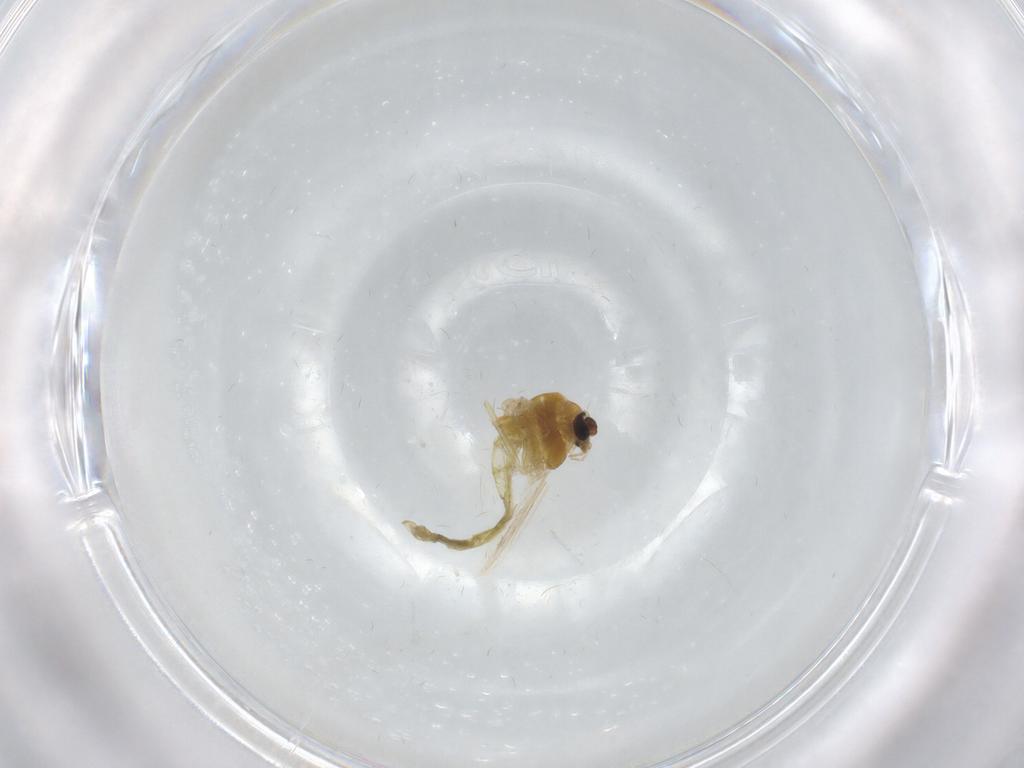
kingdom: Animalia
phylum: Arthropoda
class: Insecta
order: Diptera
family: Chironomidae
